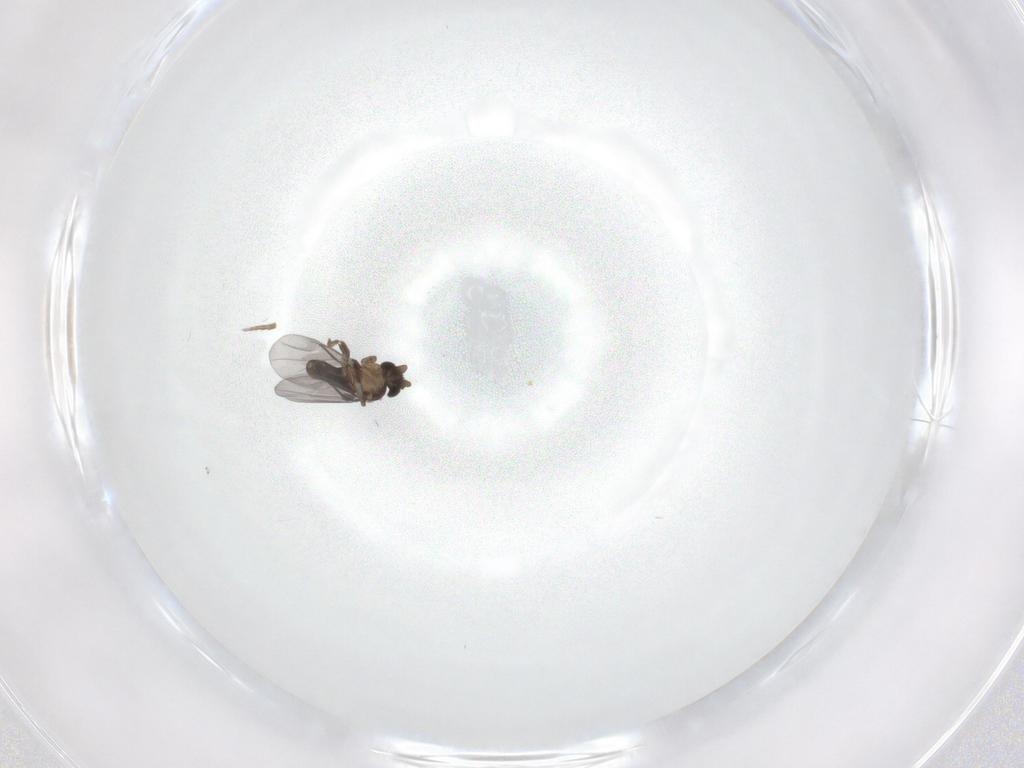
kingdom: Animalia
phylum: Arthropoda
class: Insecta
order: Diptera
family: Chironomidae
